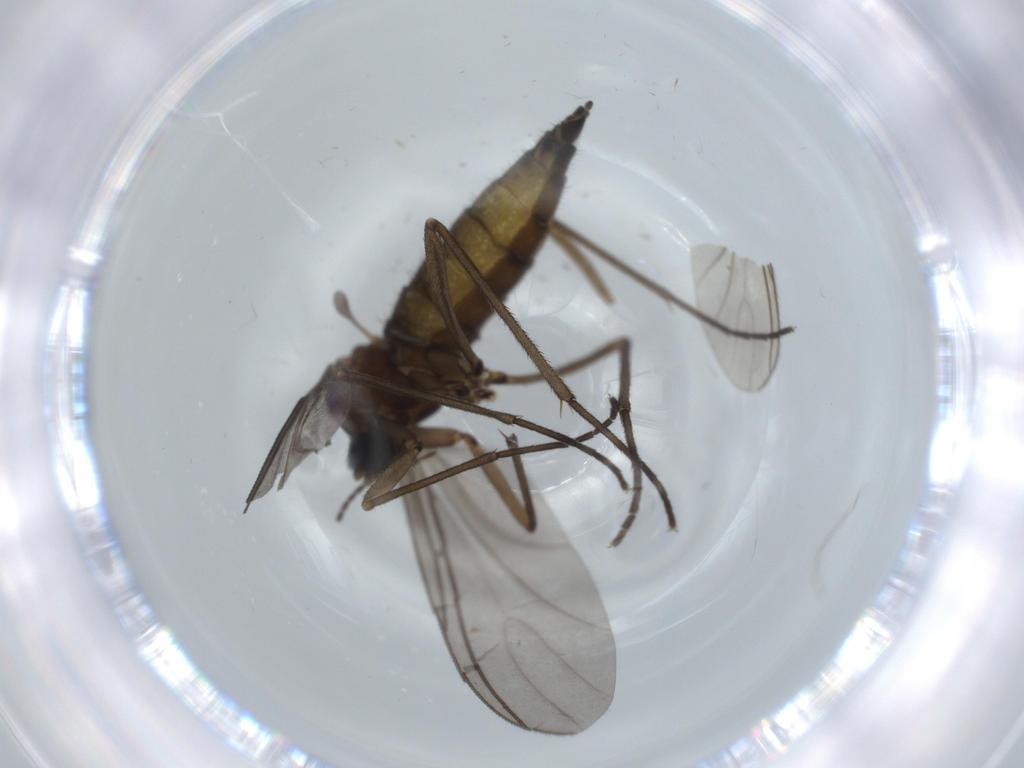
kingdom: Animalia
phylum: Arthropoda
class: Insecta
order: Diptera
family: Sciaridae
